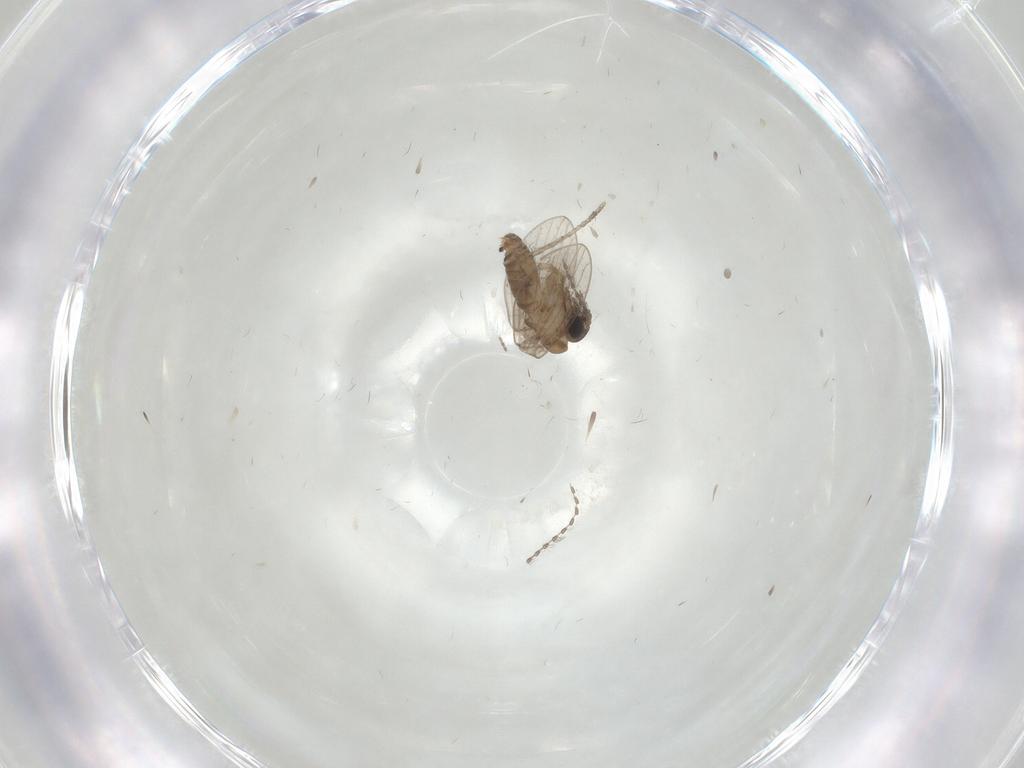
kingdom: Animalia
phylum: Arthropoda
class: Insecta
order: Diptera
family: Psychodidae
